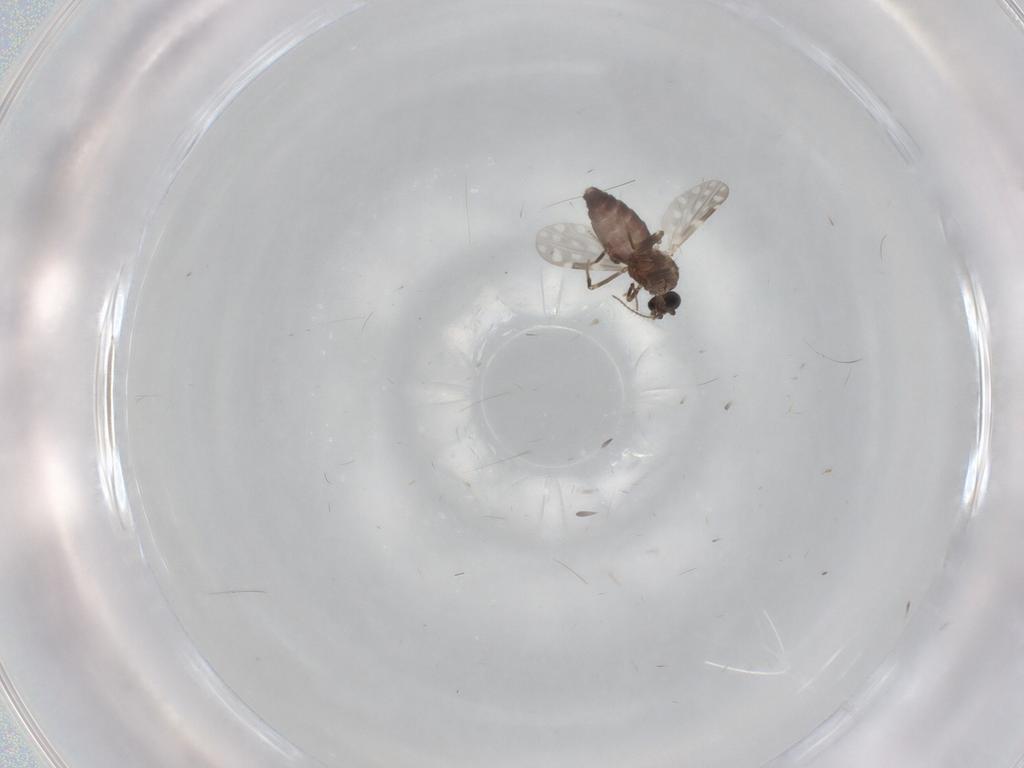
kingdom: Animalia
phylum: Arthropoda
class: Insecta
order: Diptera
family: Ceratopogonidae
